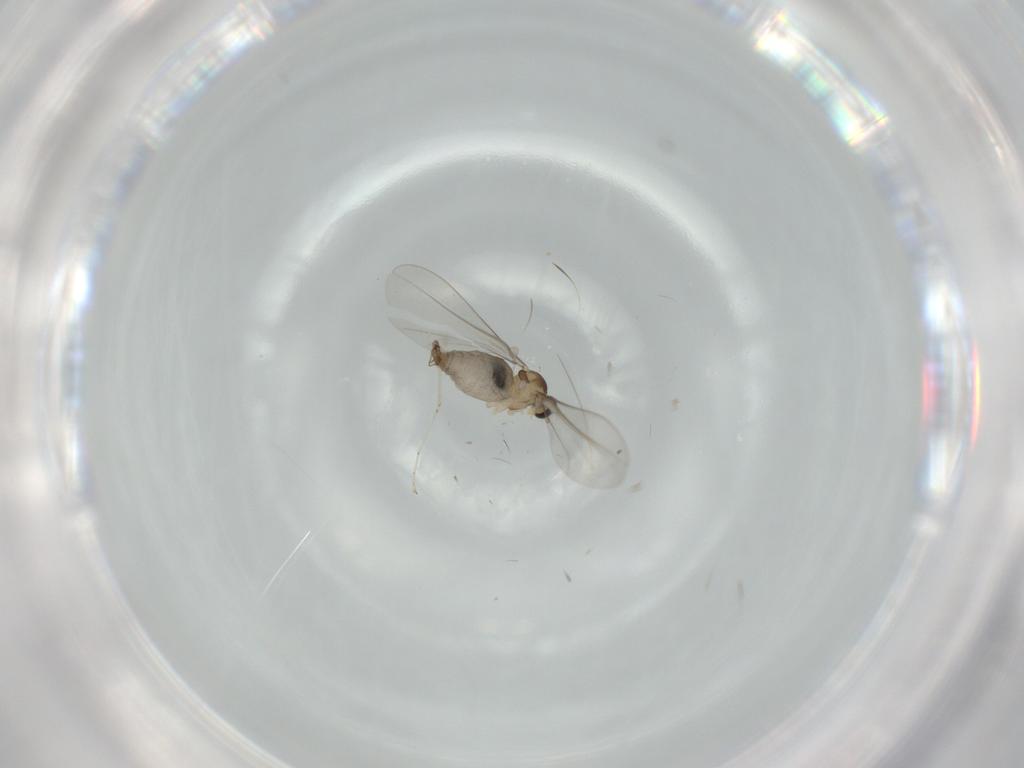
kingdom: Animalia
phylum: Arthropoda
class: Insecta
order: Diptera
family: Cecidomyiidae
